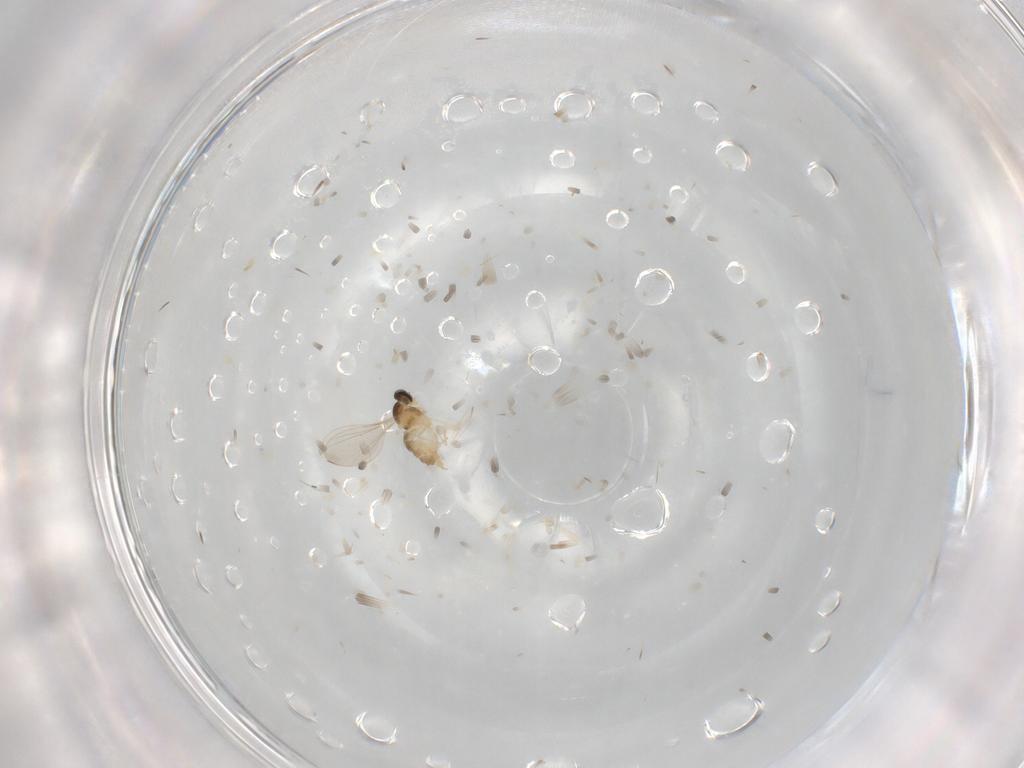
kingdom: Animalia
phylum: Arthropoda
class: Insecta
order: Diptera
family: Cecidomyiidae
